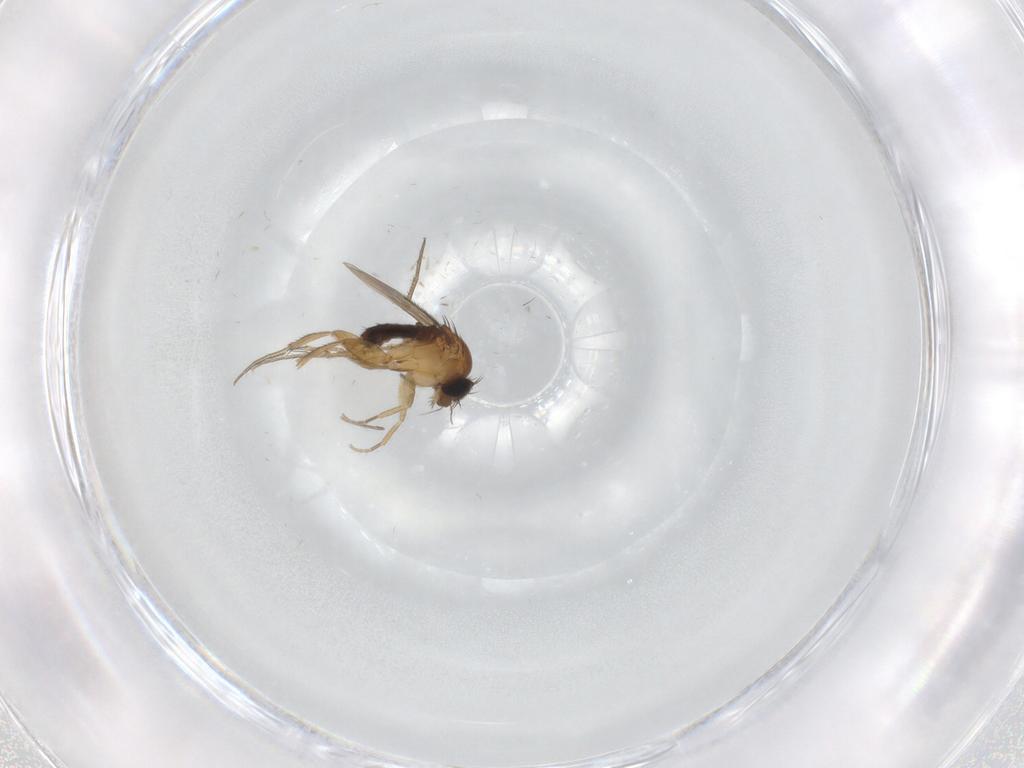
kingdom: Animalia
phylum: Arthropoda
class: Insecta
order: Diptera
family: Ceratopogonidae
